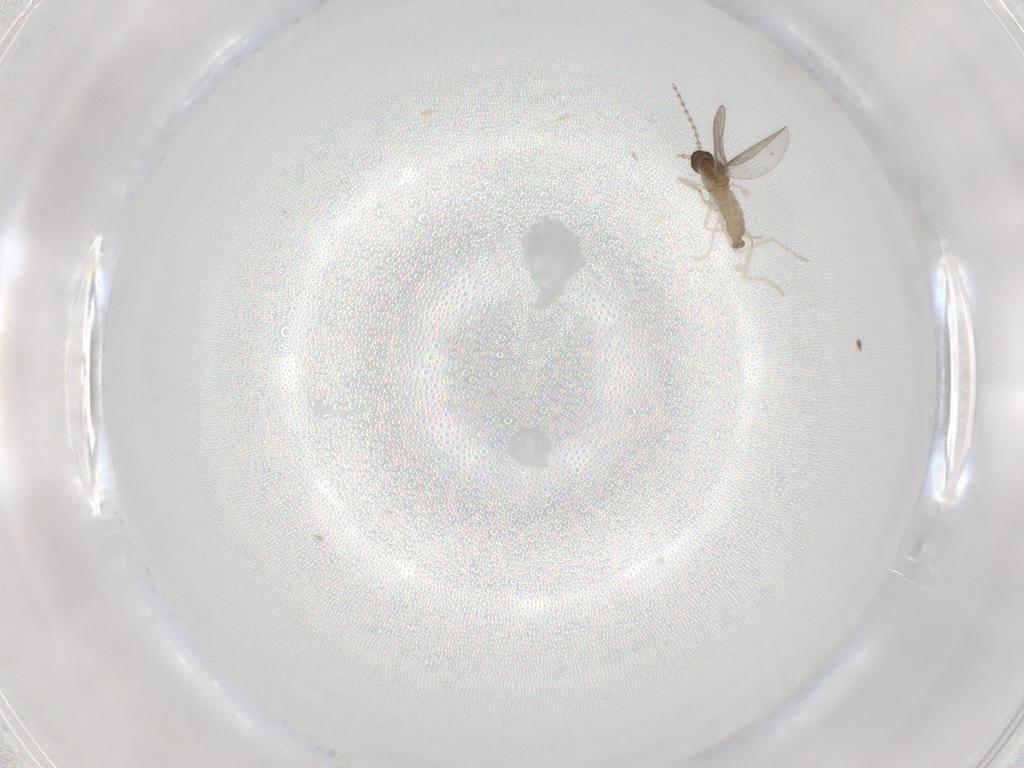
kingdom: Animalia
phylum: Arthropoda
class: Insecta
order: Diptera
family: Cecidomyiidae
